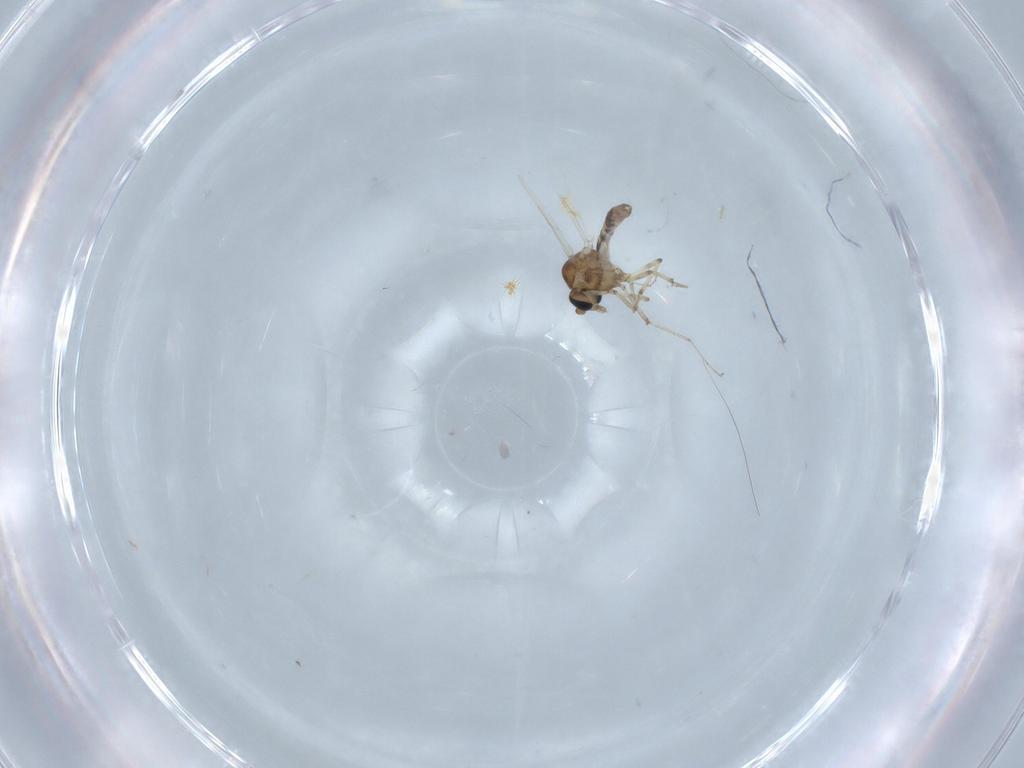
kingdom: Animalia
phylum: Arthropoda
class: Insecta
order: Diptera
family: Ceratopogonidae
